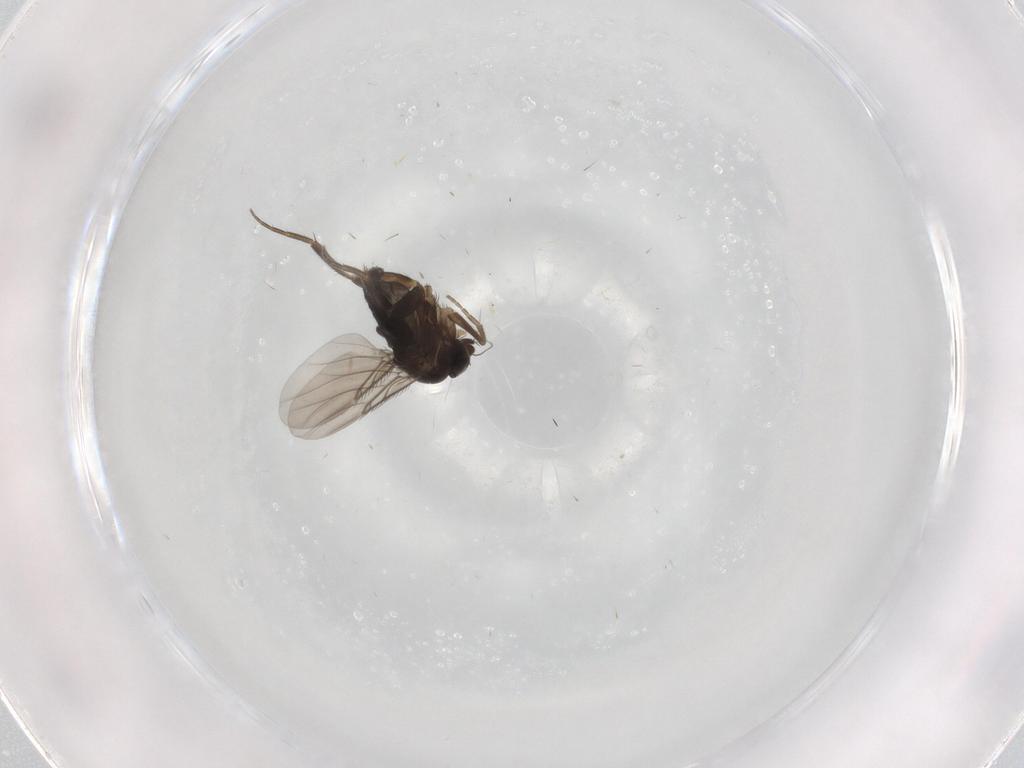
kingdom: Animalia
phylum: Arthropoda
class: Insecta
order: Diptera
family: Phoridae
